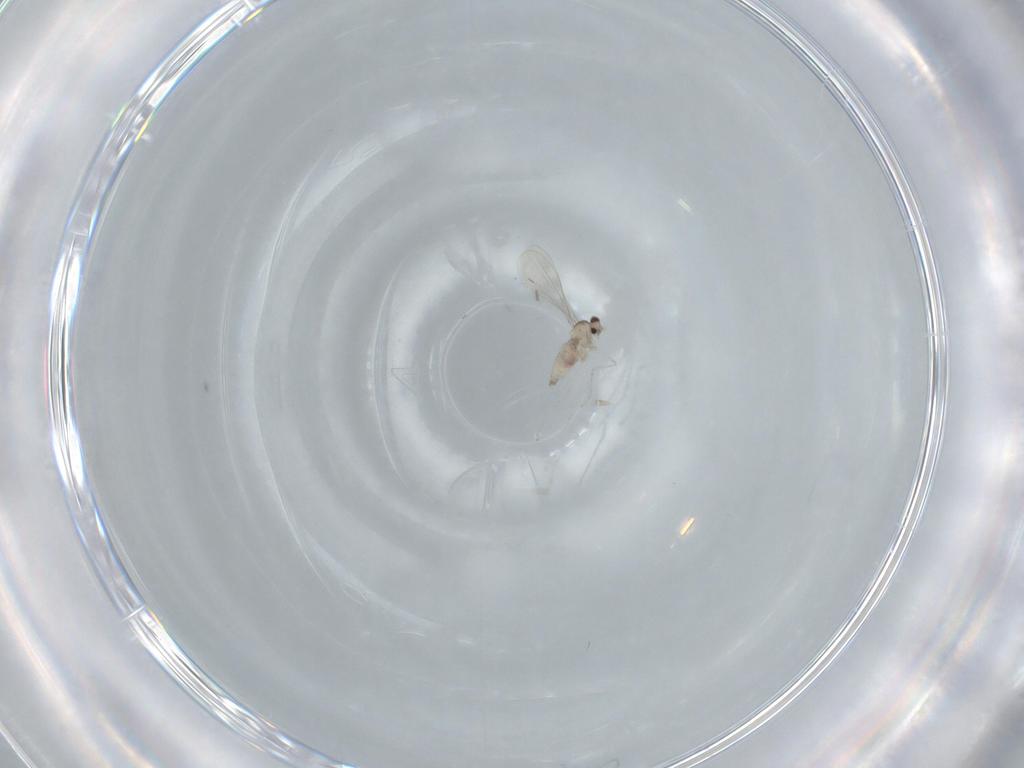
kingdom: Animalia
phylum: Arthropoda
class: Insecta
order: Diptera
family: Cecidomyiidae
